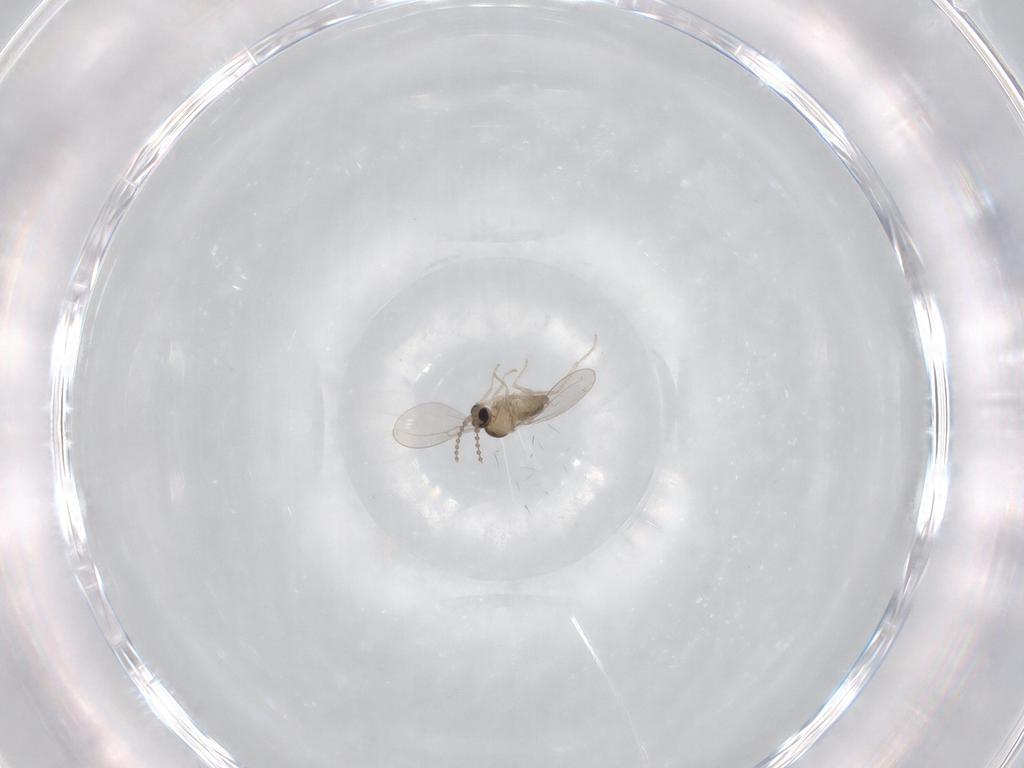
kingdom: Animalia
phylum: Arthropoda
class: Insecta
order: Diptera
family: Cecidomyiidae
